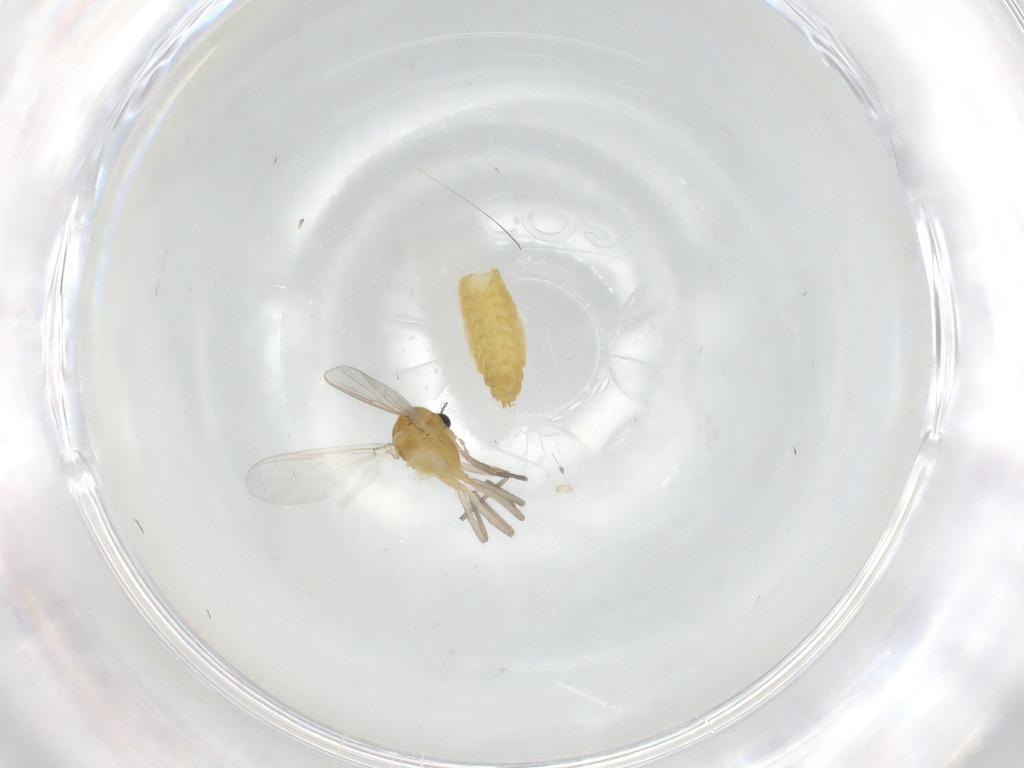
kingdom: Animalia
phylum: Arthropoda
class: Insecta
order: Diptera
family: Chironomidae
